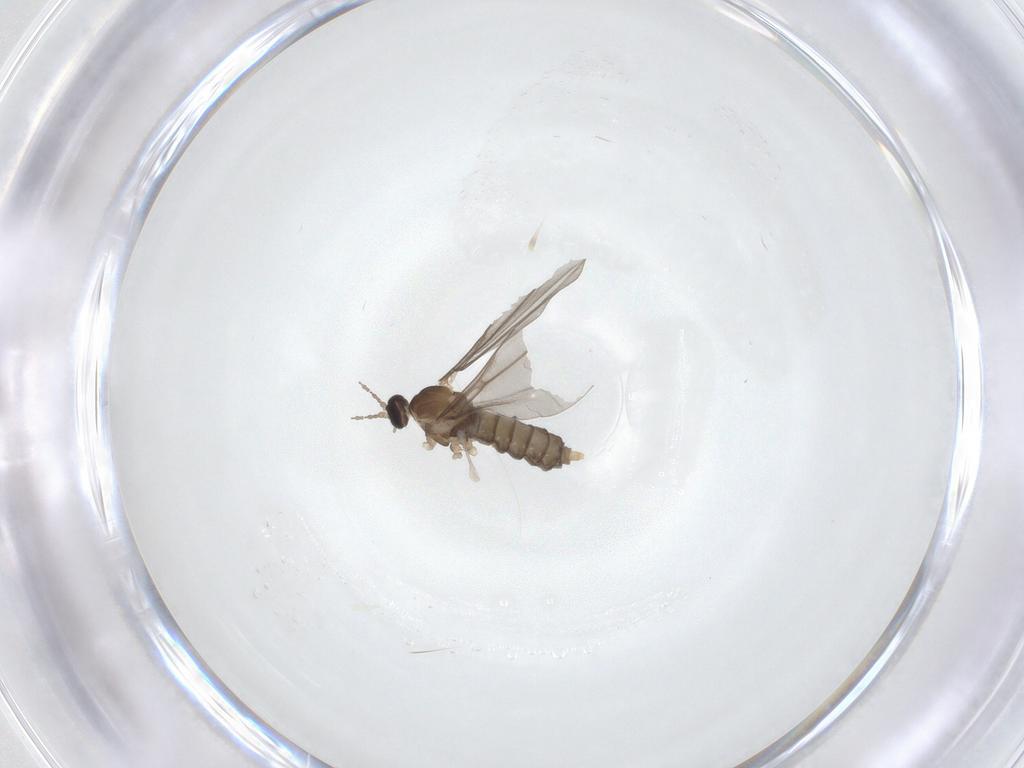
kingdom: Animalia
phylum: Arthropoda
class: Insecta
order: Diptera
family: Cecidomyiidae
